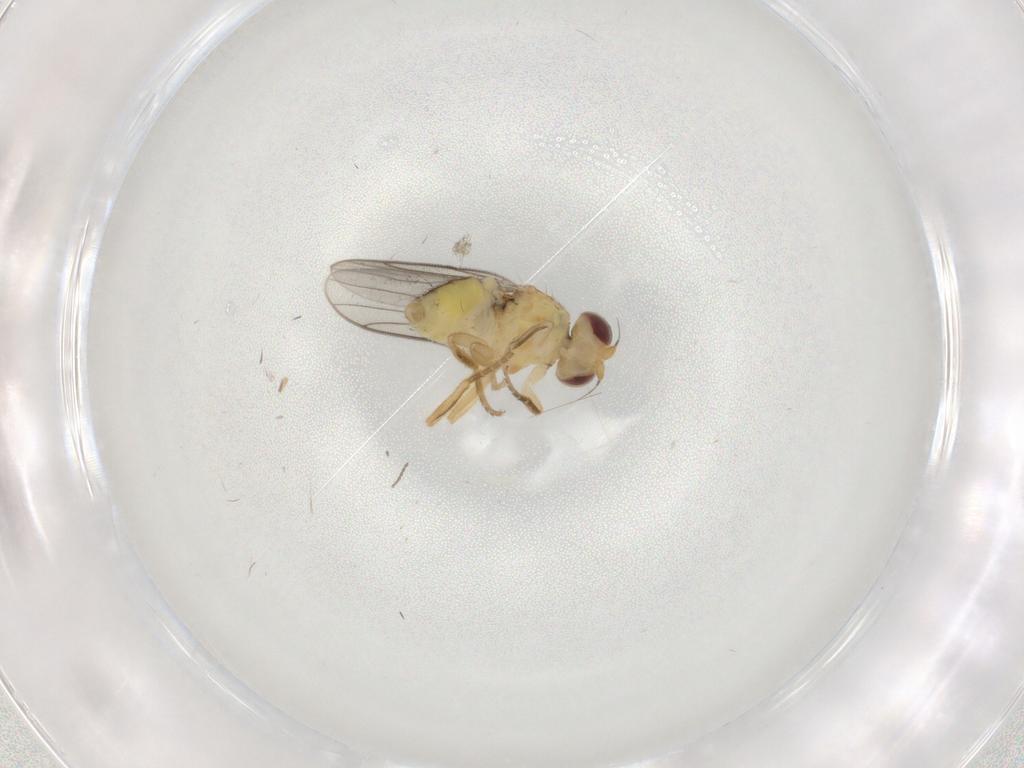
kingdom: Animalia
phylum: Arthropoda
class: Insecta
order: Diptera
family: Chloropidae
